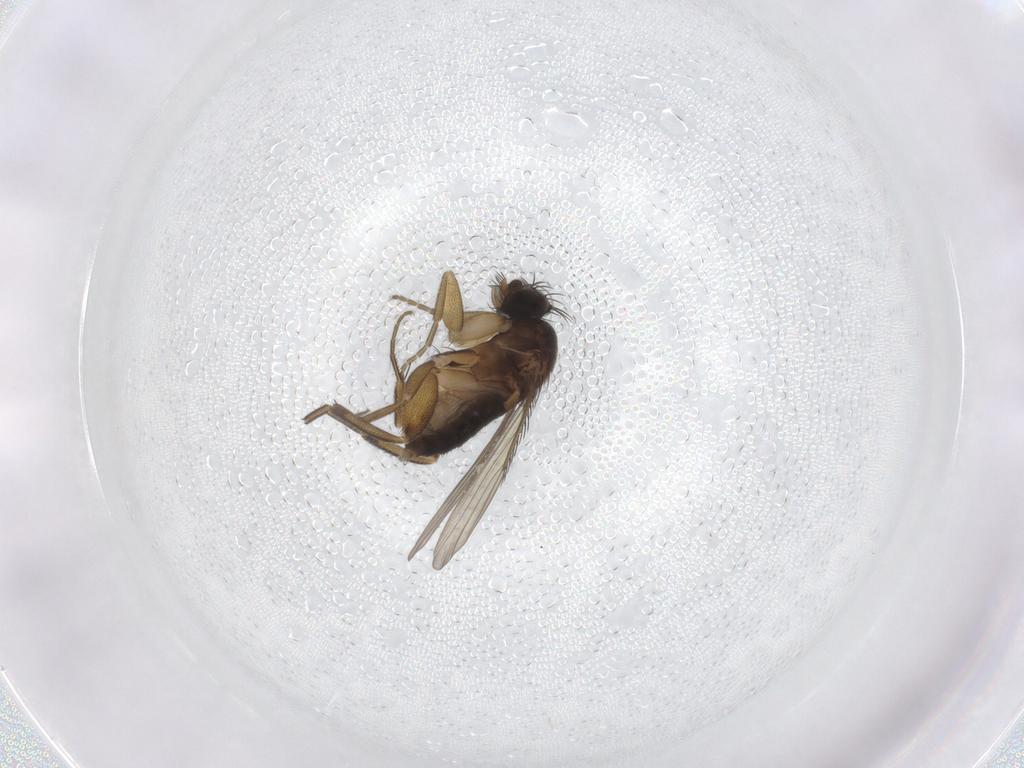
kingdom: Animalia
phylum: Arthropoda
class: Insecta
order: Diptera
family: Phoridae
